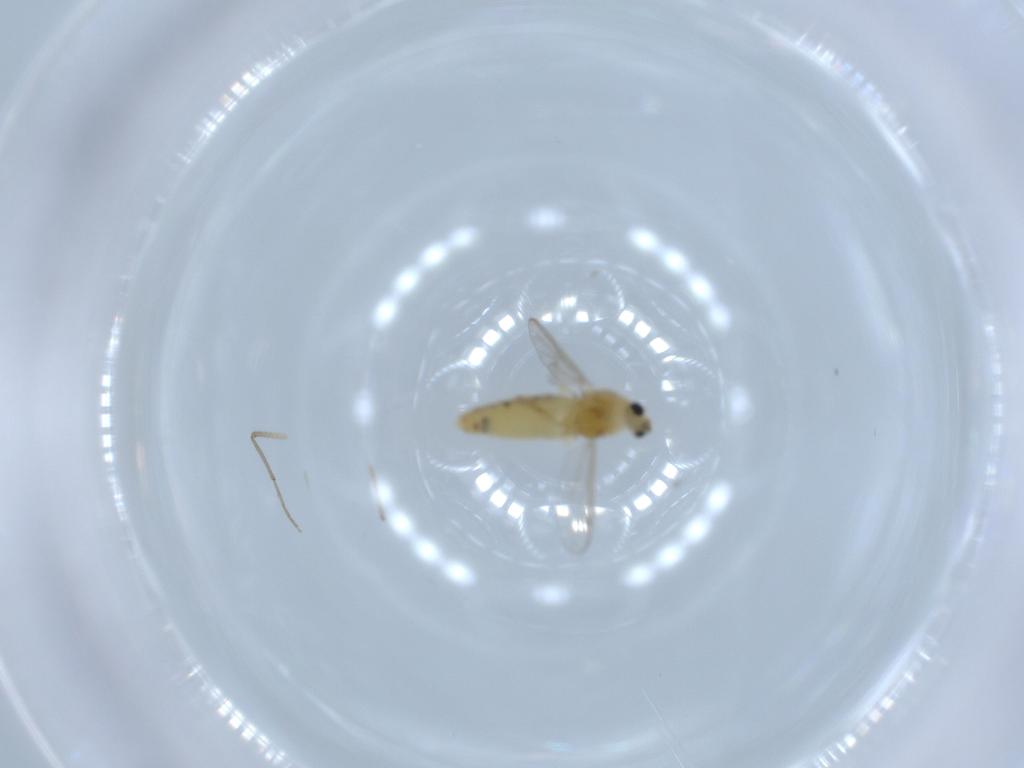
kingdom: Animalia
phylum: Arthropoda
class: Insecta
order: Diptera
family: Chironomidae
